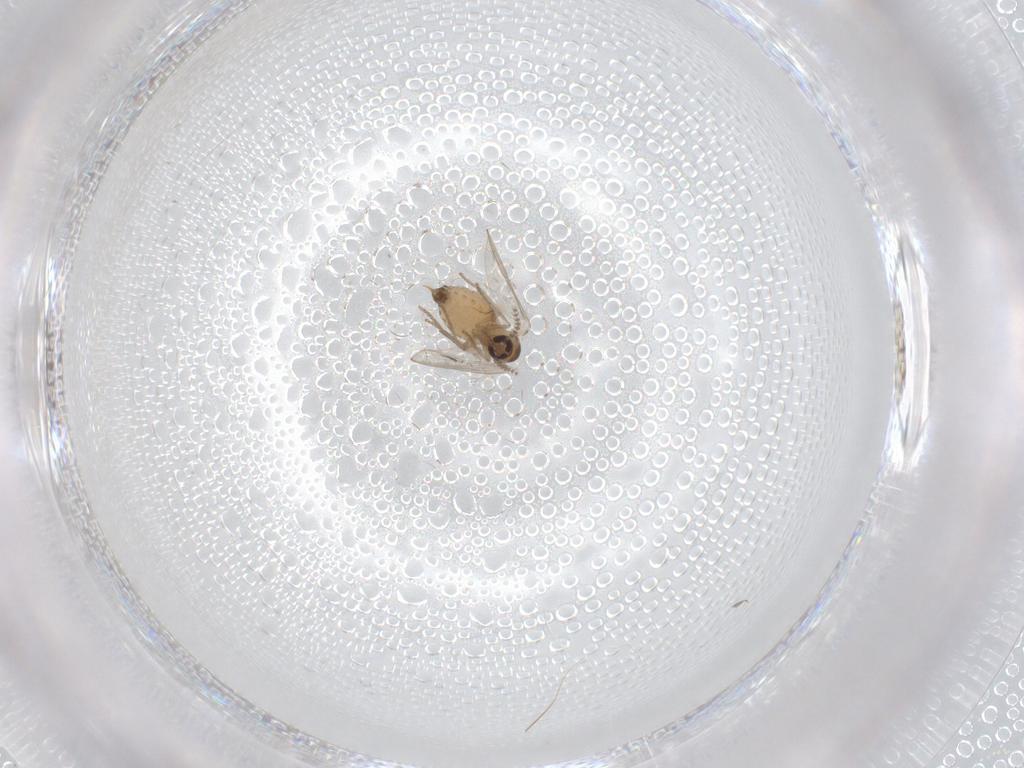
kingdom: Animalia
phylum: Arthropoda
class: Insecta
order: Diptera
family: Psychodidae
